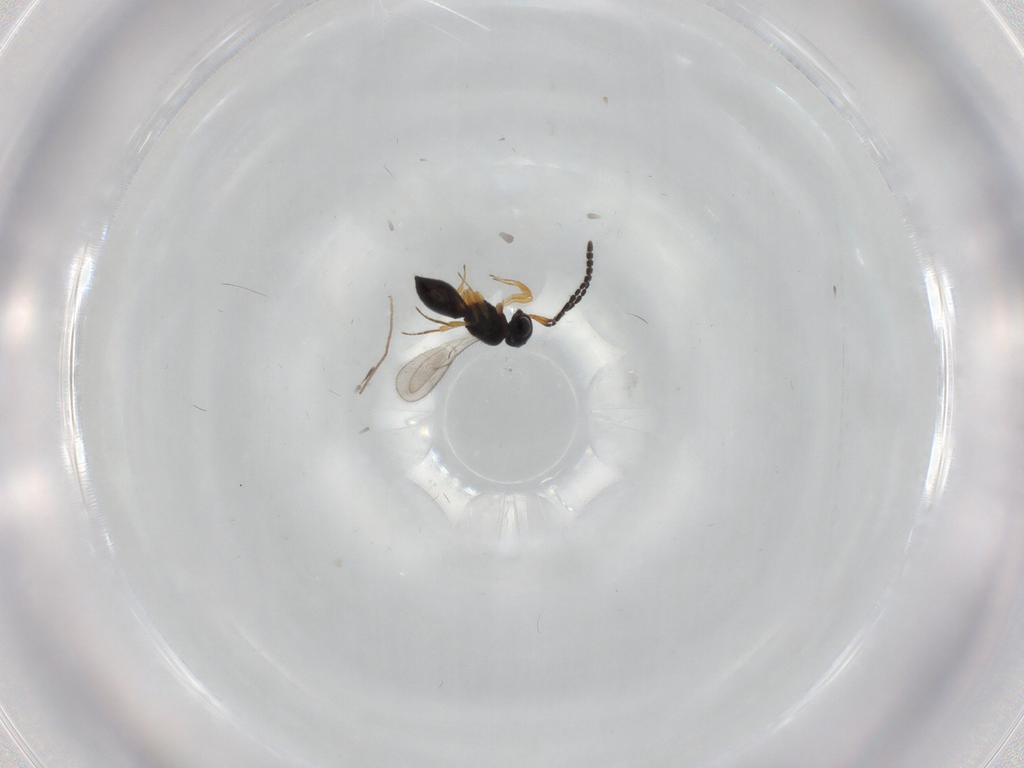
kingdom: Animalia
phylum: Arthropoda
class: Insecta
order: Hymenoptera
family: Scelionidae
